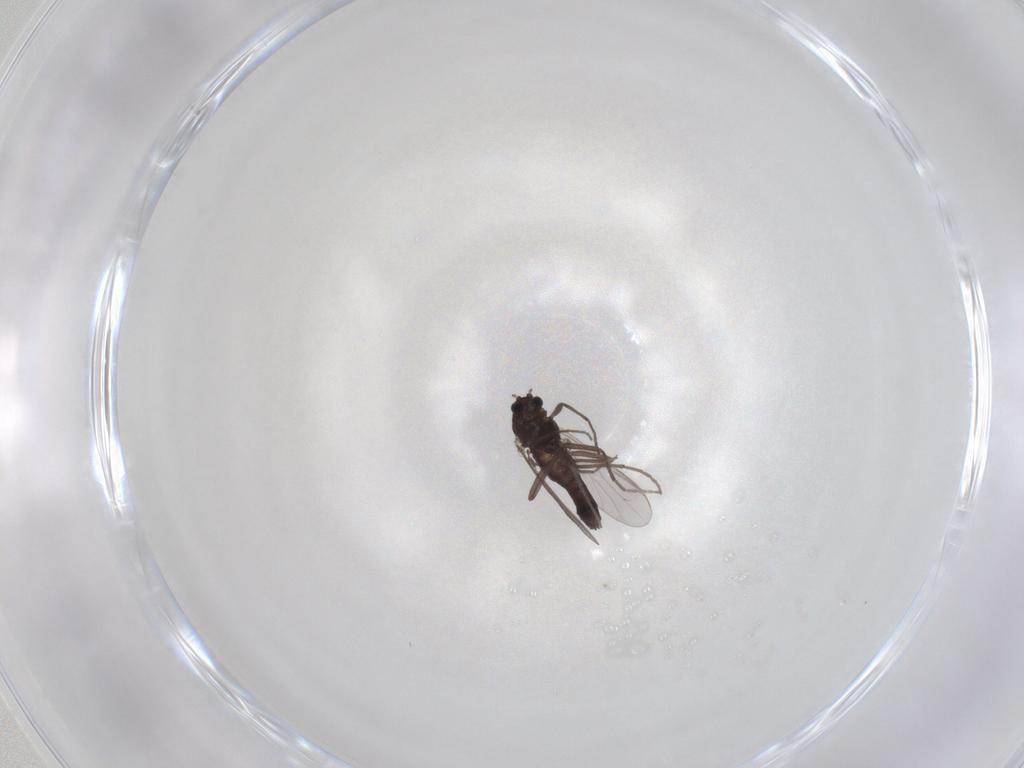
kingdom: Animalia
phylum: Arthropoda
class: Insecta
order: Diptera
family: Chironomidae
